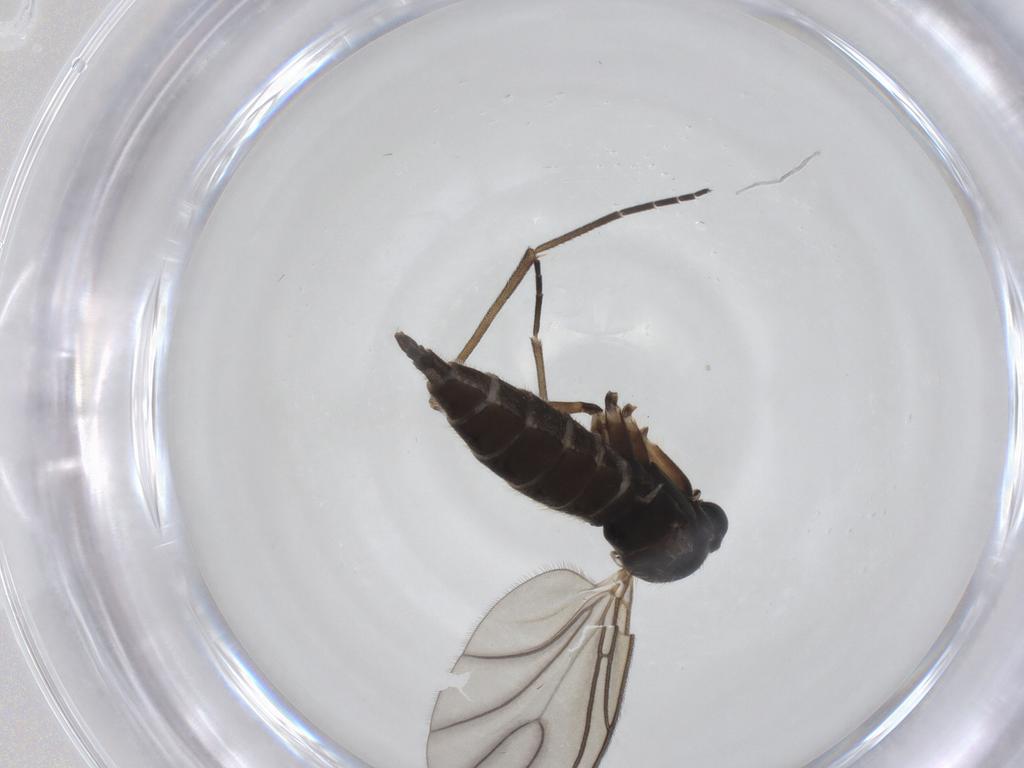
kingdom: Animalia
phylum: Arthropoda
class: Insecta
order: Diptera
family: Sciaridae
